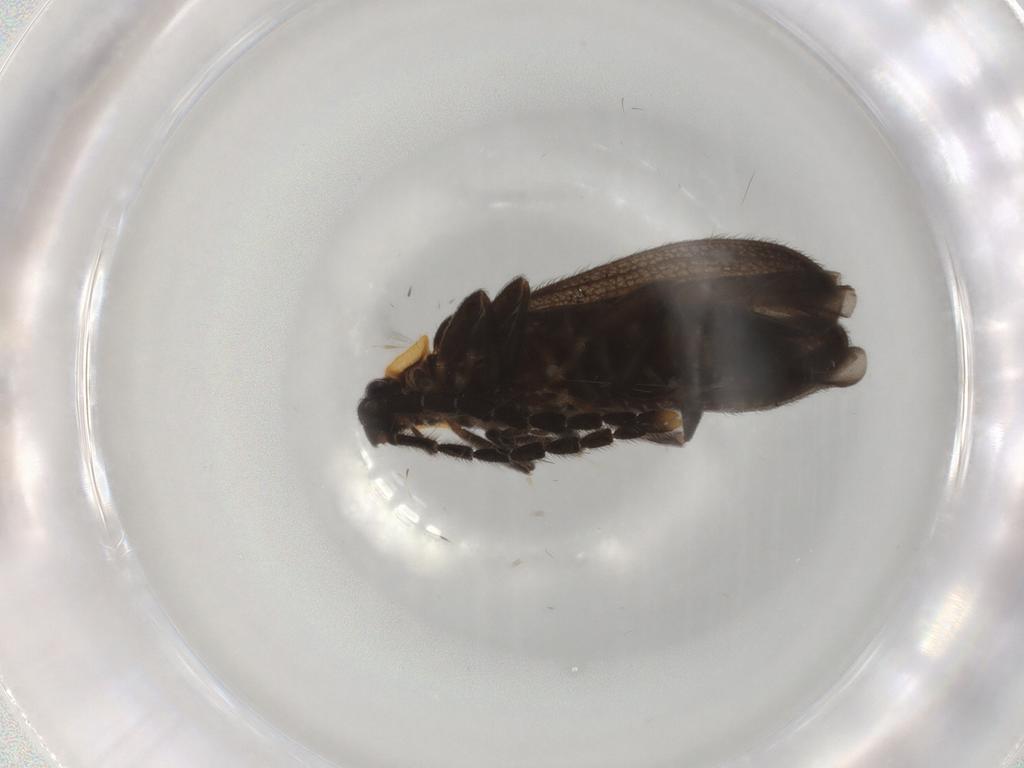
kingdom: Animalia
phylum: Arthropoda
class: Insecta
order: Coleoptera
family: Lycidae
